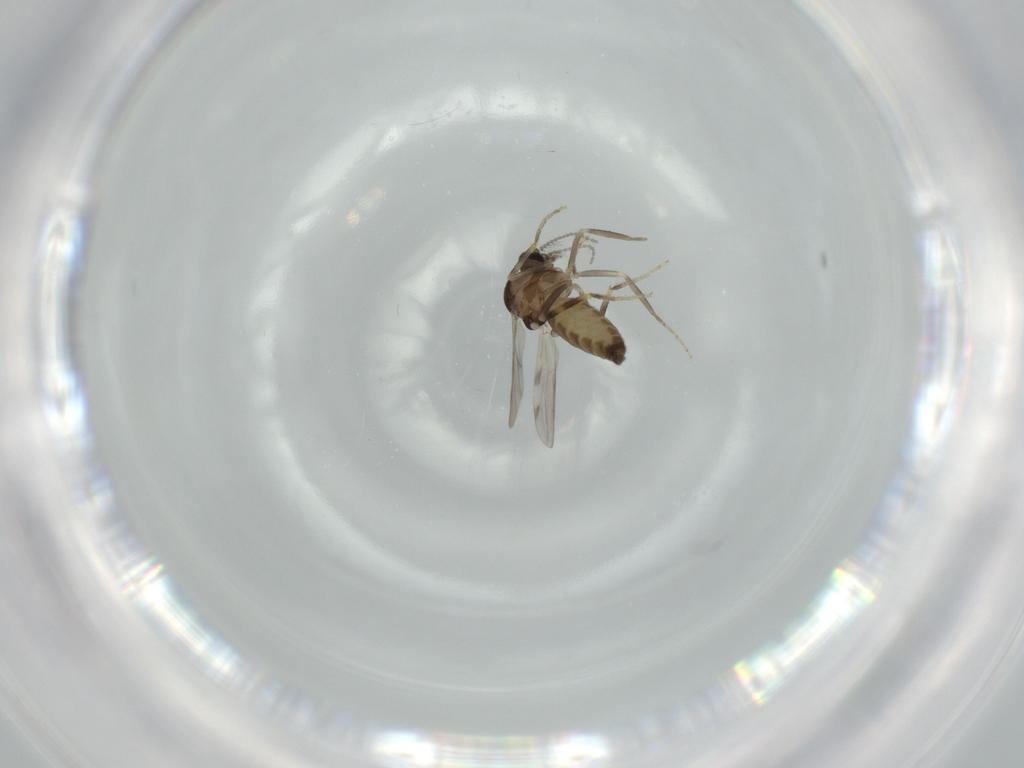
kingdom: Animalia
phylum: Arthropoda
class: Insecta
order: Diptera
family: Ceratopogonidae
